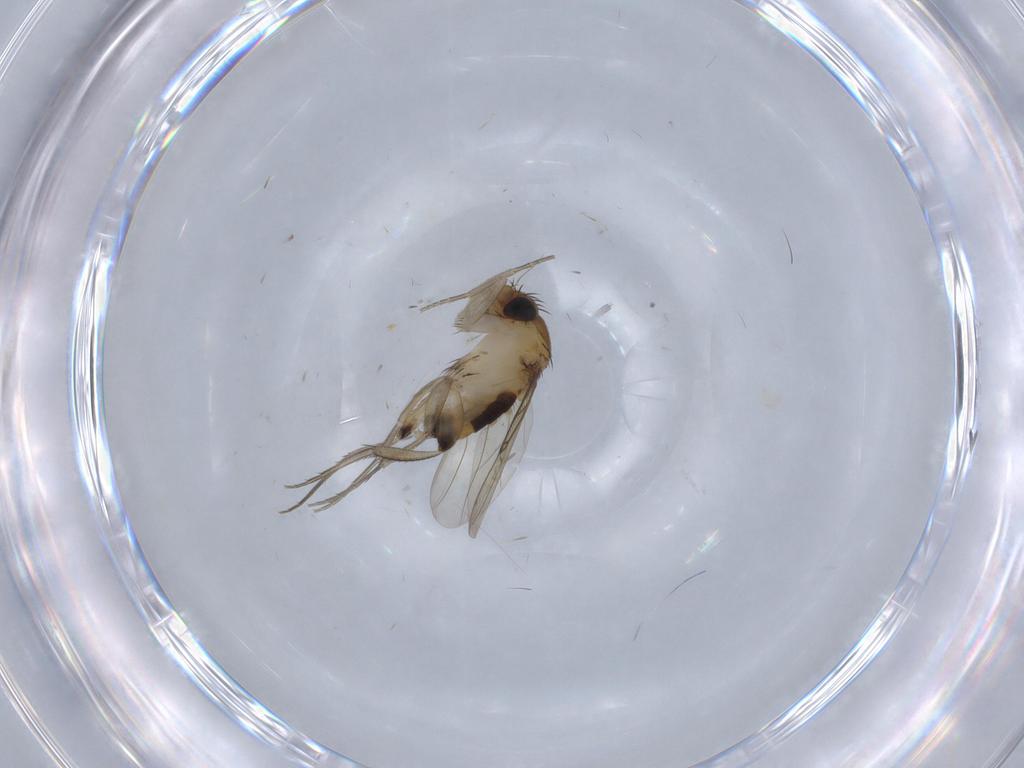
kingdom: Animalia
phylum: Arthropoda
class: Insecta
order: Diptera
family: Phoridae
